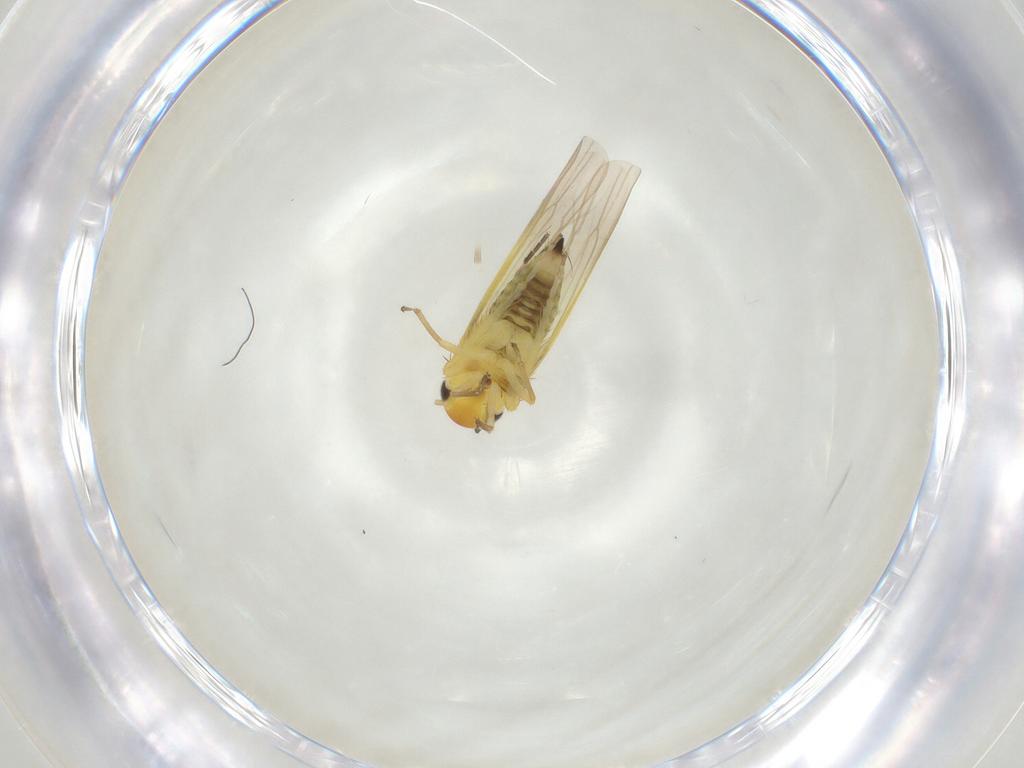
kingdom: Animalia
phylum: Arthropoda
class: Insecta
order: Hemiptera
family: Cicadellidae
